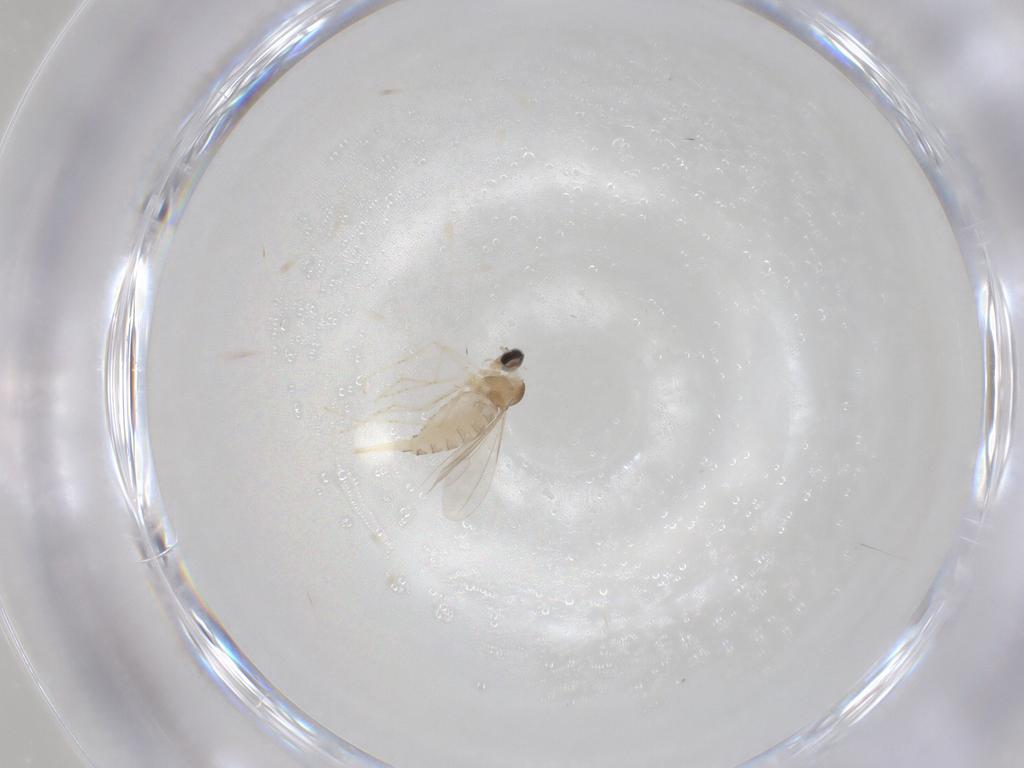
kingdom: Animalia
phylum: Arthropoda
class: Insecta
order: Diptera
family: Cecidomyiidae
